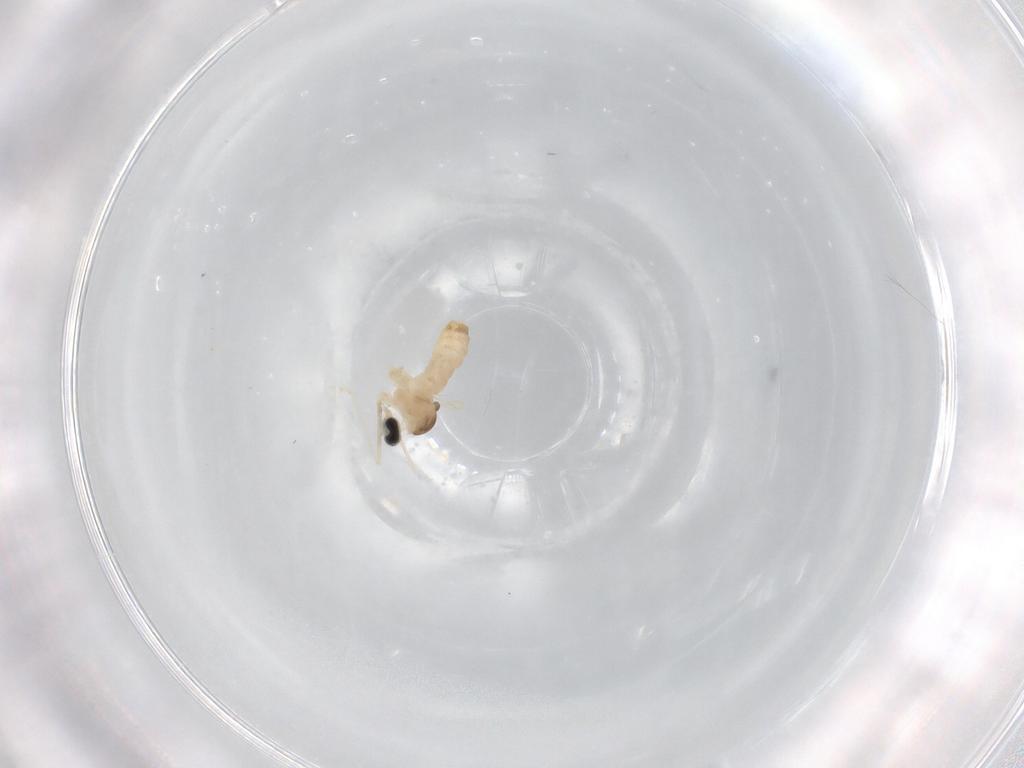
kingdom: Animalia
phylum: Arthropoda
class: Insecta
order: Diptera
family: Cecidomyiidae
